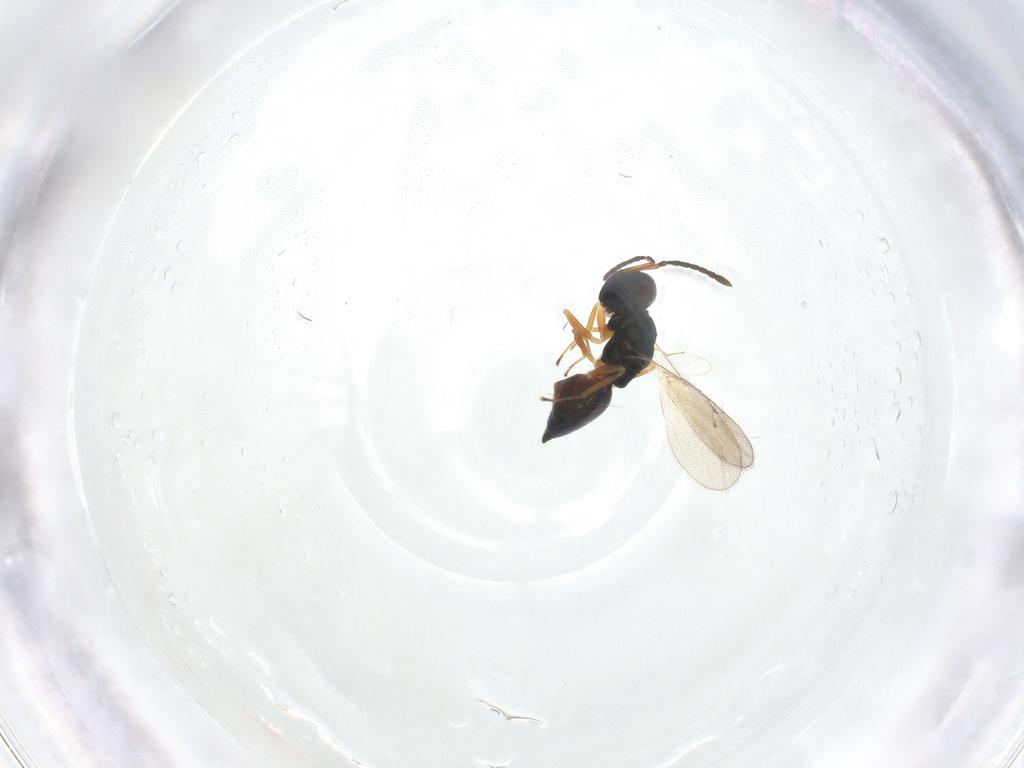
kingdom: Animalia
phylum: Arthropoda
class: Insecta
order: Hymenoptera
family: Pteromalidae
